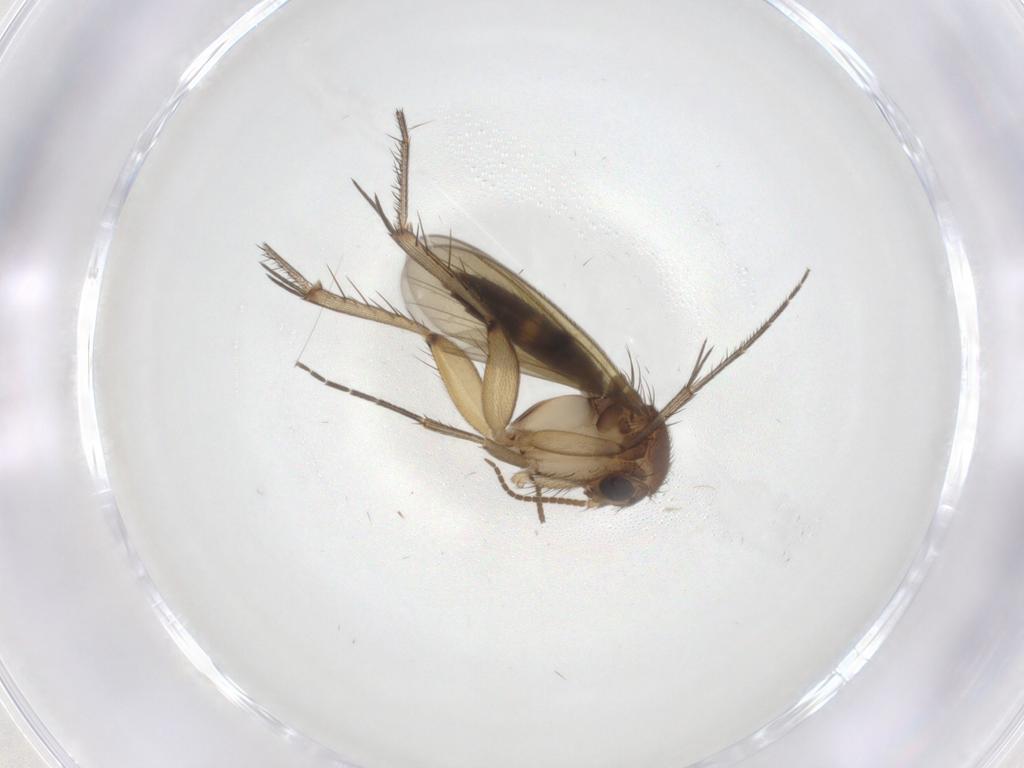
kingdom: Animalia
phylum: Arthropoda
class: Insecta
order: Diptera
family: Mycetophilidae
